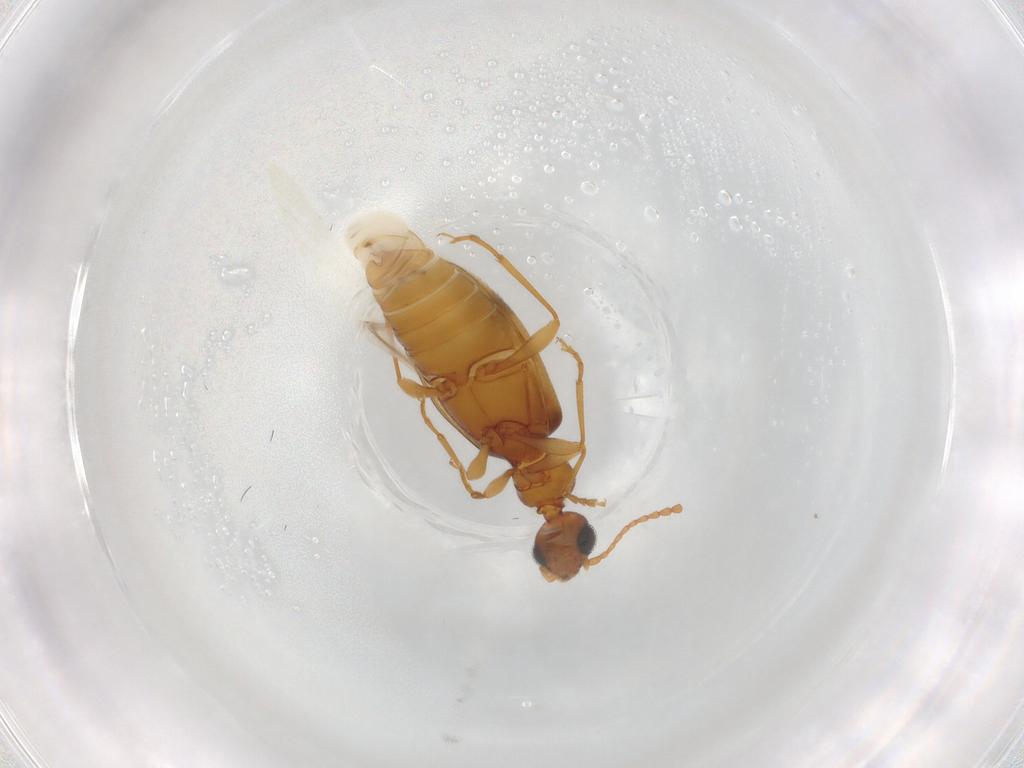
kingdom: Animalia
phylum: Arthropoda
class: Insecta
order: Coleoptera
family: Anthicidae
